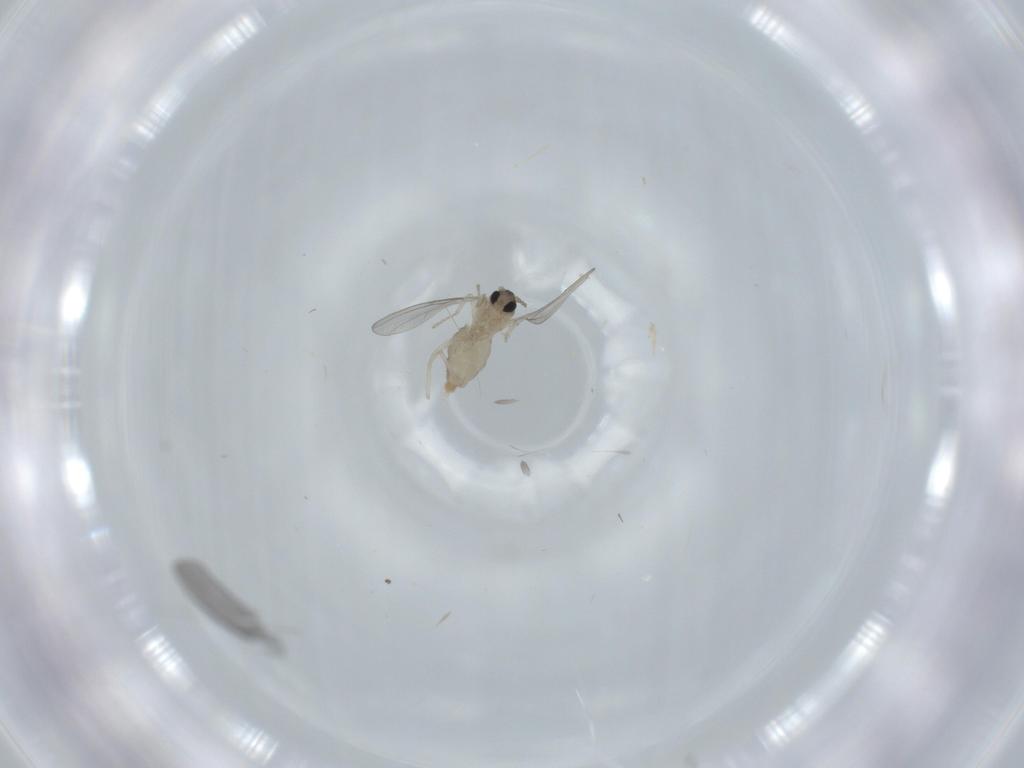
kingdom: Animalia
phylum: Arthropoda
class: Insecta
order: Diptera
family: Cecidomyiidae
